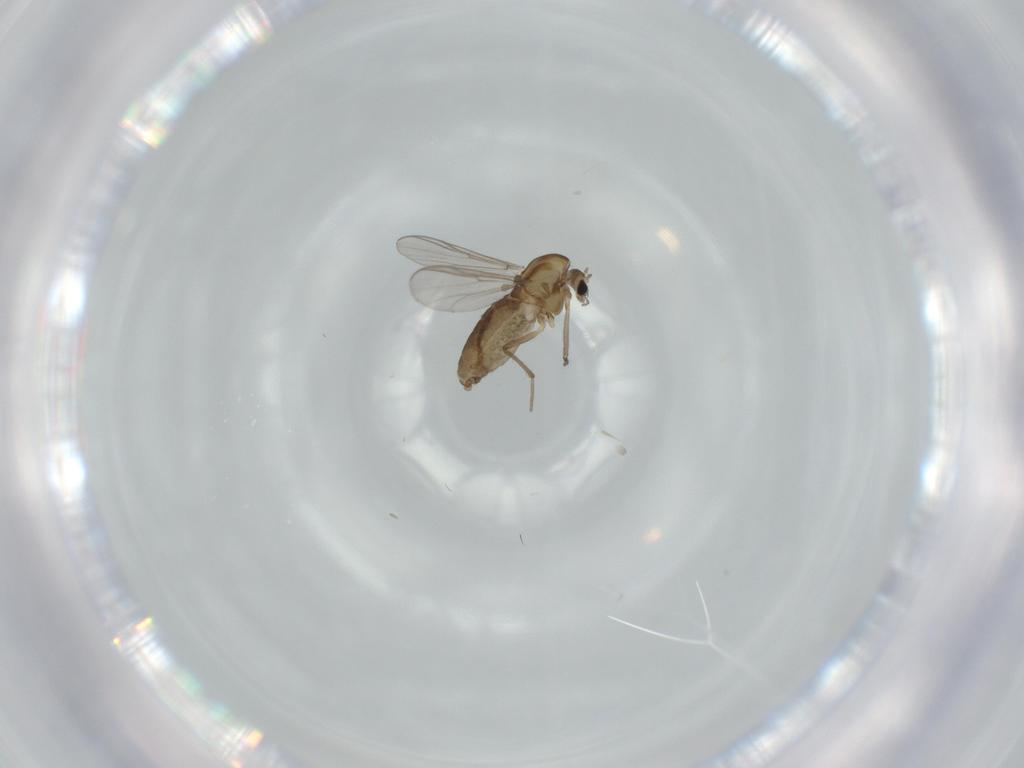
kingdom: Animalia
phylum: Arthropoda
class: Insecta
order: Diptera
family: Chironomidae
